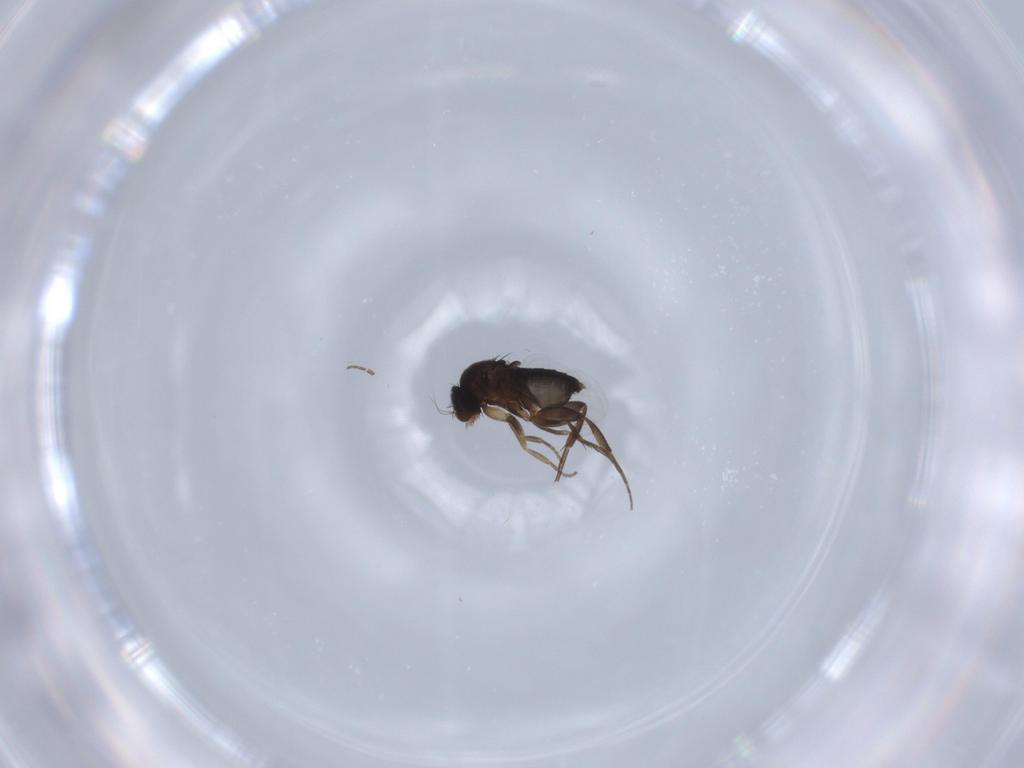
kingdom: Animalia
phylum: Arthropoda
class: Insecta
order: Diptera
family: Phoridae
